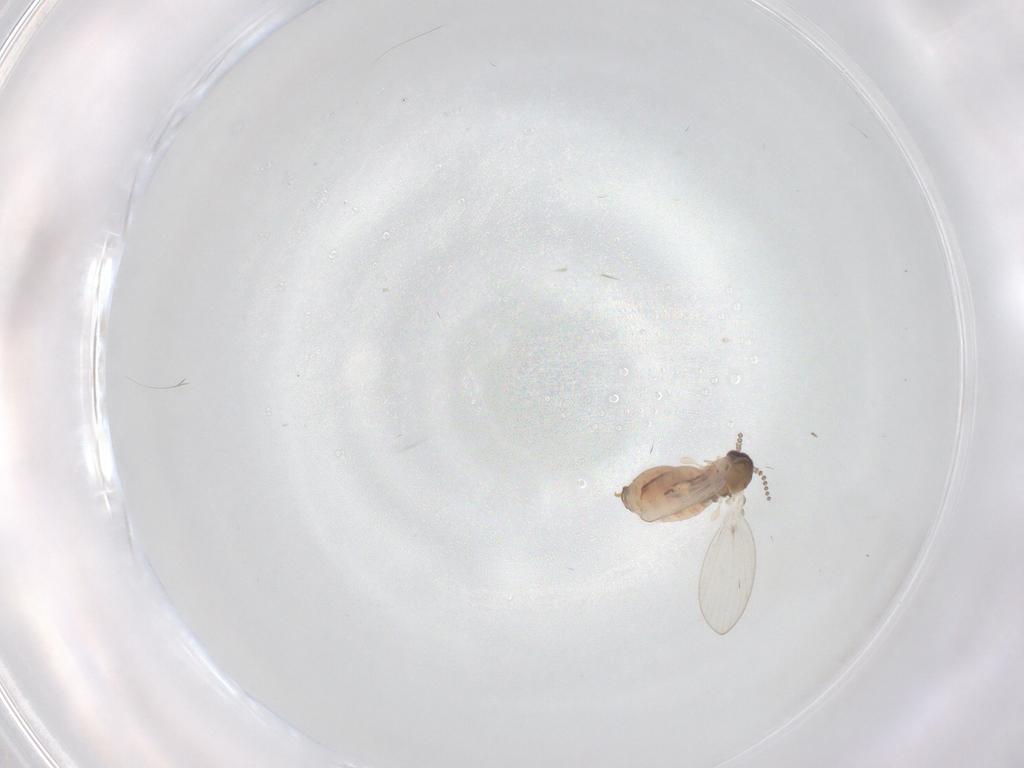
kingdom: Animalia
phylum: Arthropoda
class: Insecta
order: Diptera
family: Psychodidae
